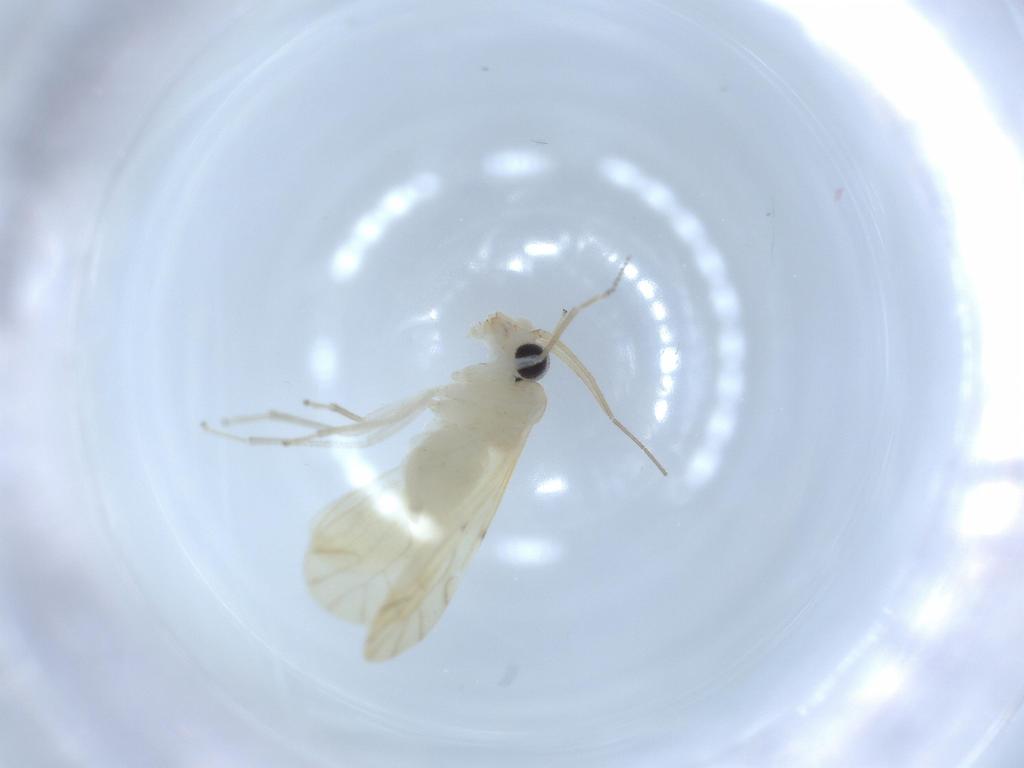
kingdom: Animalia
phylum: Arthropoda
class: Insecta
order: Psocodea
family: Caeciliusidae
